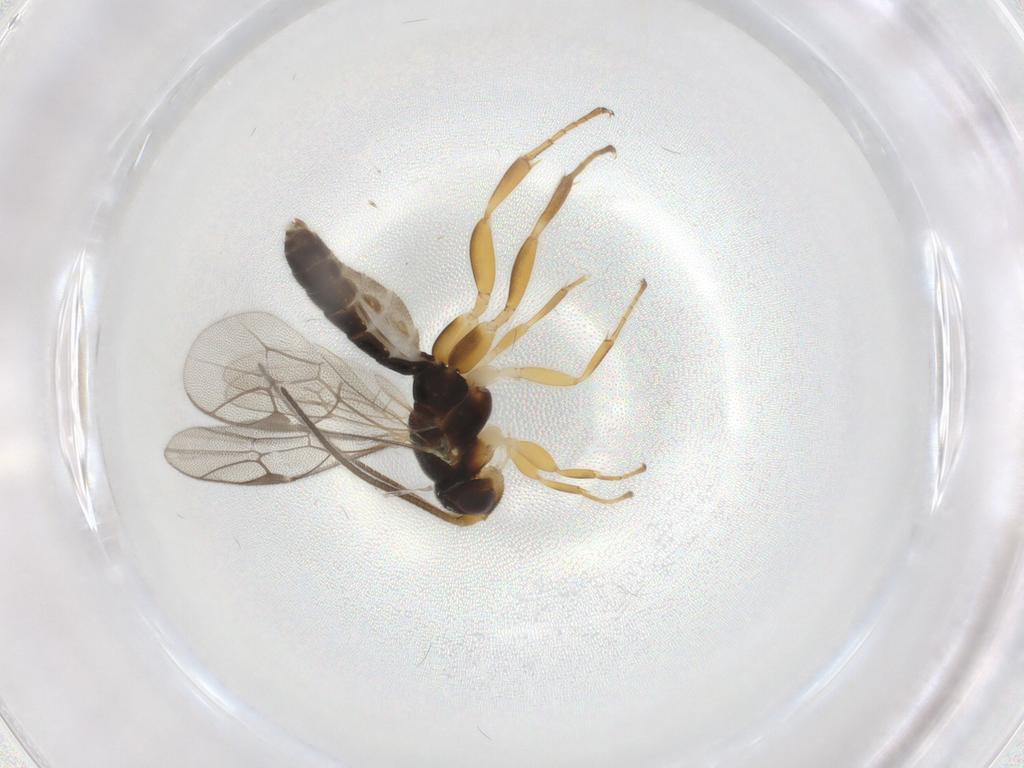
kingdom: Animalia
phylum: Arthropoda
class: Insecta
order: Hymenoptera
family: Ichneumonidae
